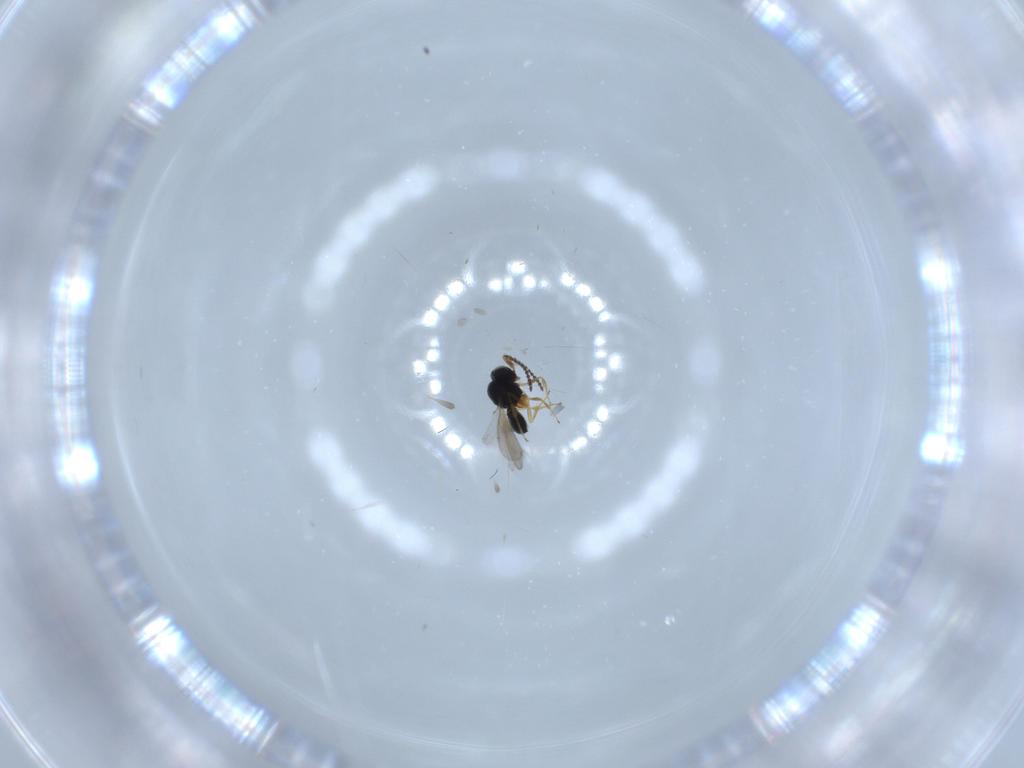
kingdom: Animalia
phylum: Arthropoda
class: Insecta
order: Hymenoptera
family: Scelionidae
